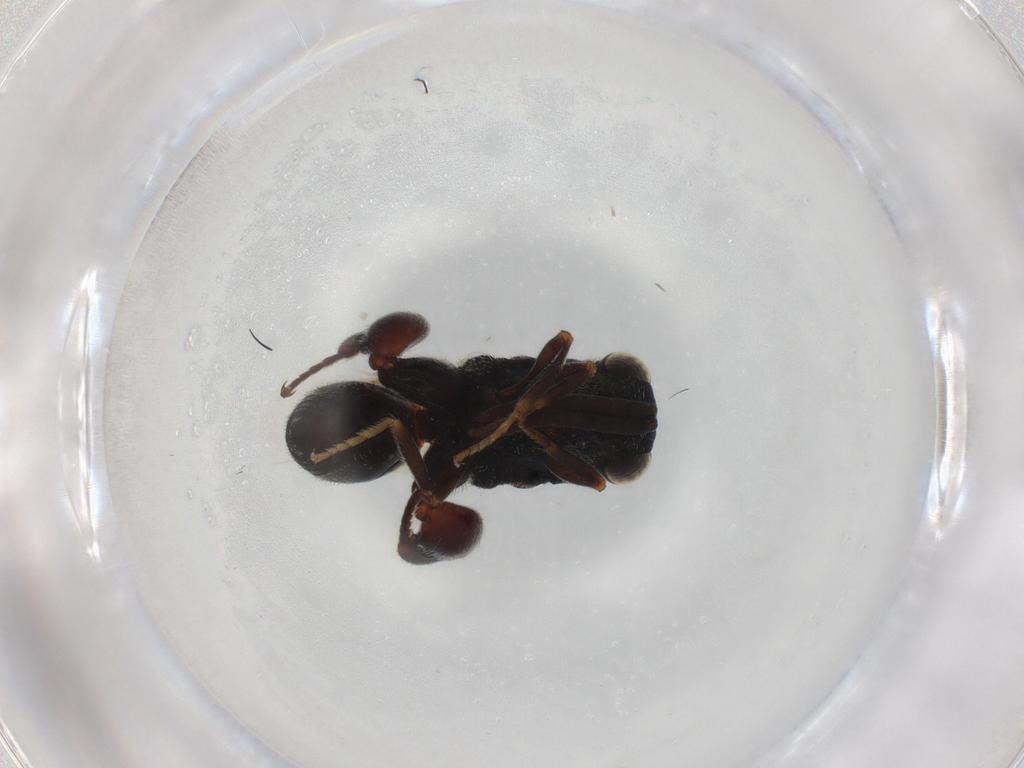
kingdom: Animalia
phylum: Arthropoda
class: Insecta
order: Hymenoptera
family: Chalcididae
